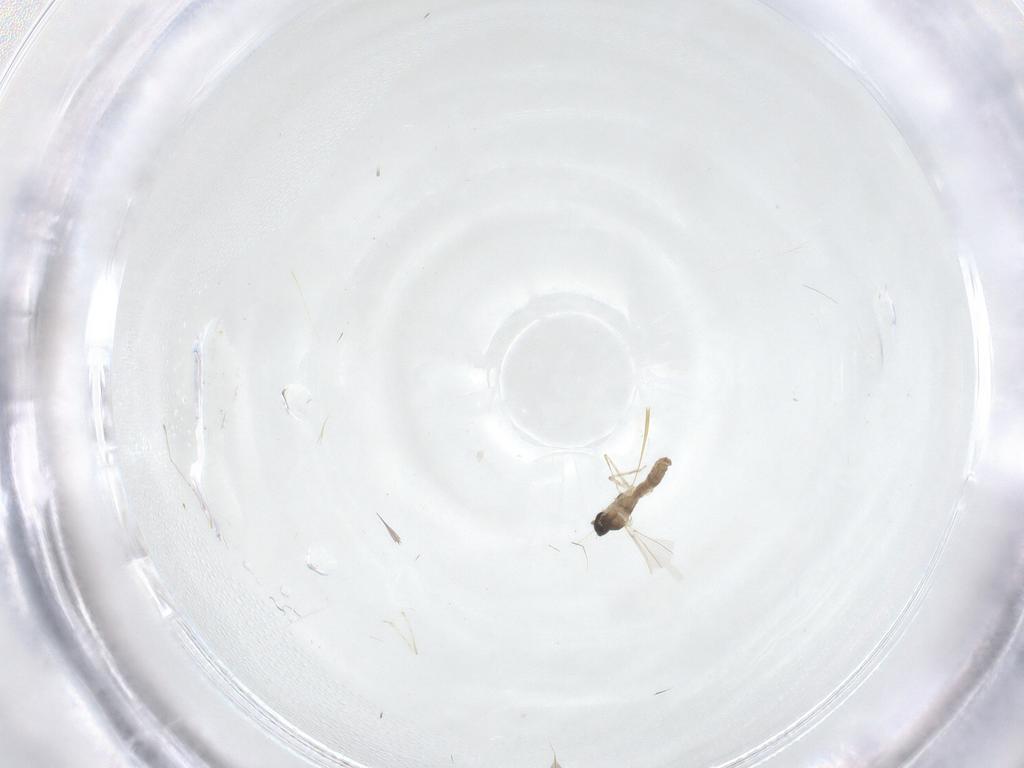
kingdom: Animalia
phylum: Arthropoda
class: Insecta
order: Diptera
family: Cecidomyiidae
